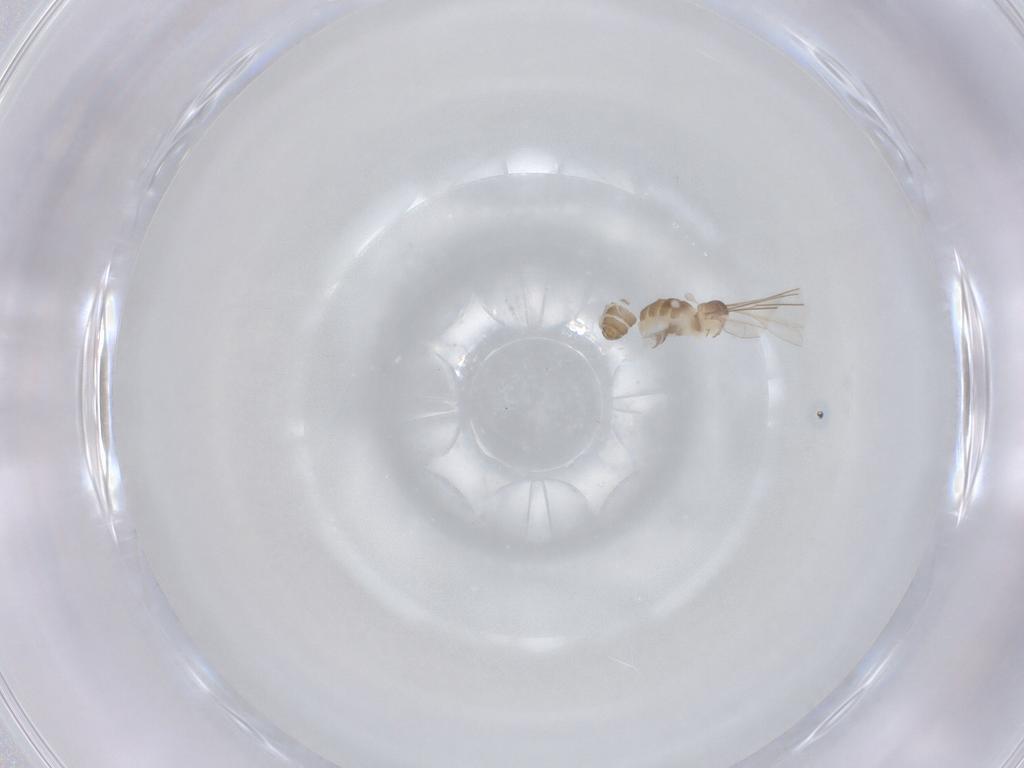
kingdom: Animalia
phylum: Arthropoda
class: Insecta
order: Diptera
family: Cecidomyiidae
